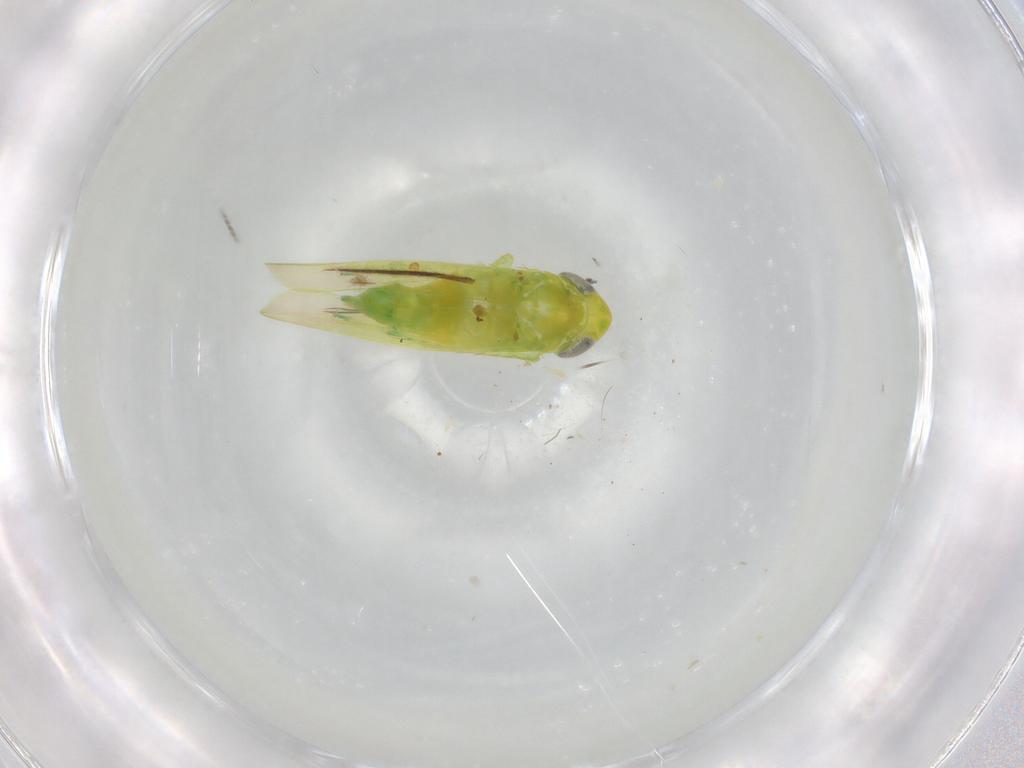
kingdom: Animalia
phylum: Arthropoda
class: Insecta
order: Hemiptera
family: Cicadellidae
